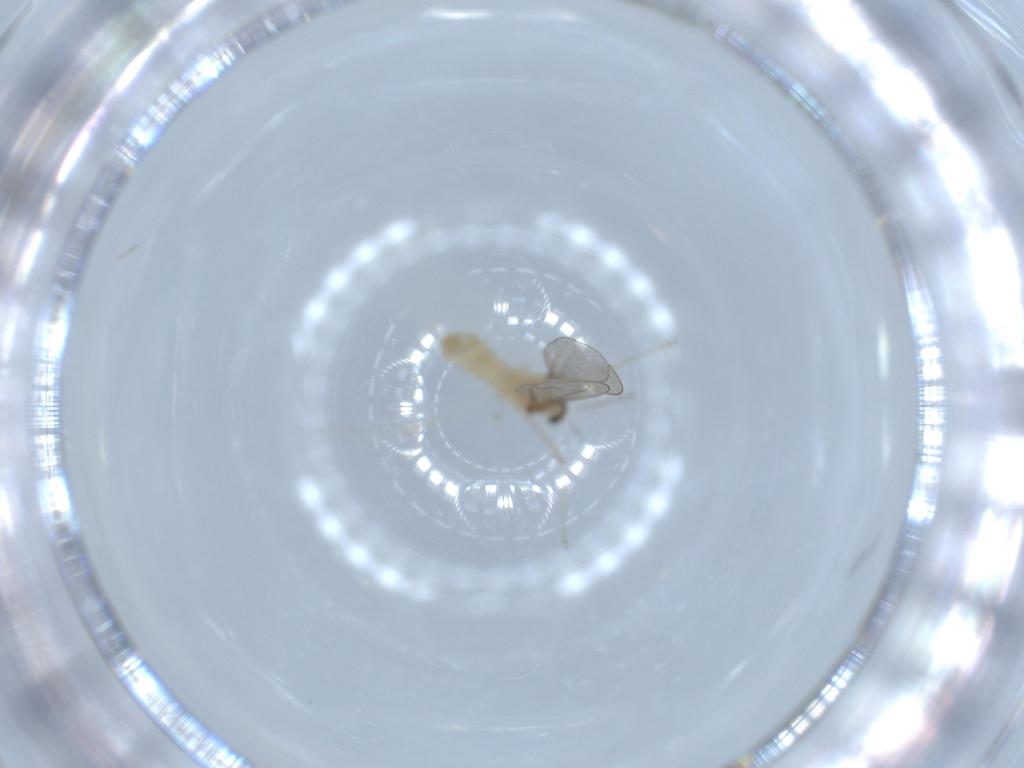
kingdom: Animalia
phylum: Arthropoda
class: Insecta
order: Diptera
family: Cecidomyiidae
